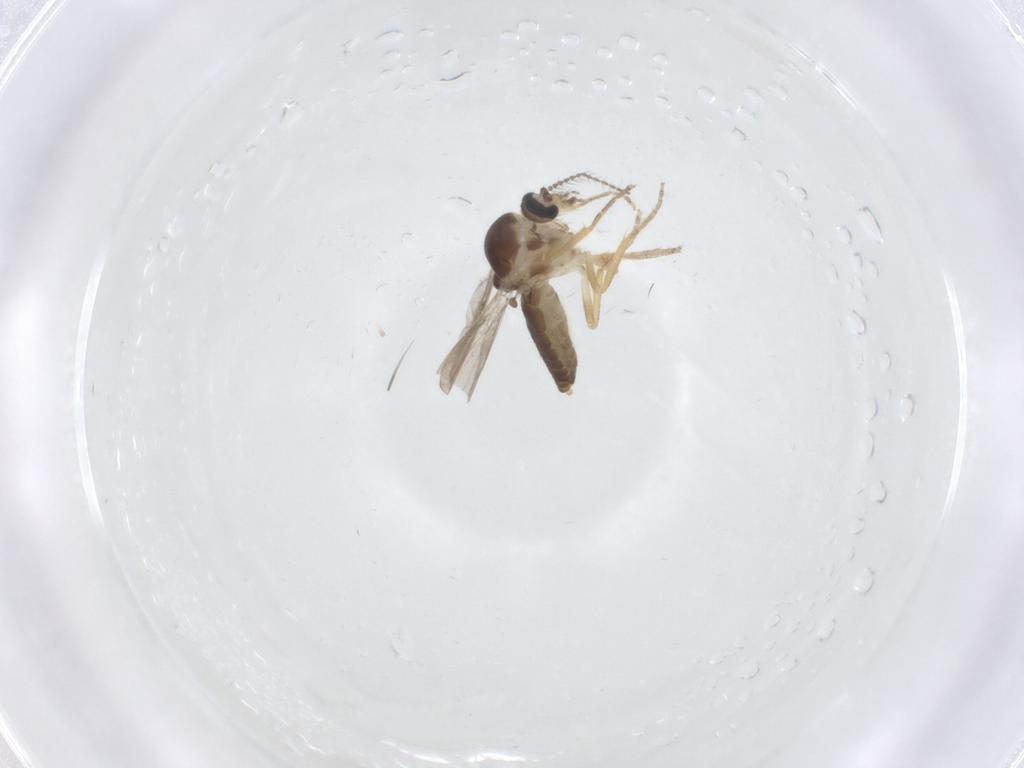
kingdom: Animalia
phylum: Arthropoda
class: Insecta
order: Diptera
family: Ceratopogonidae
